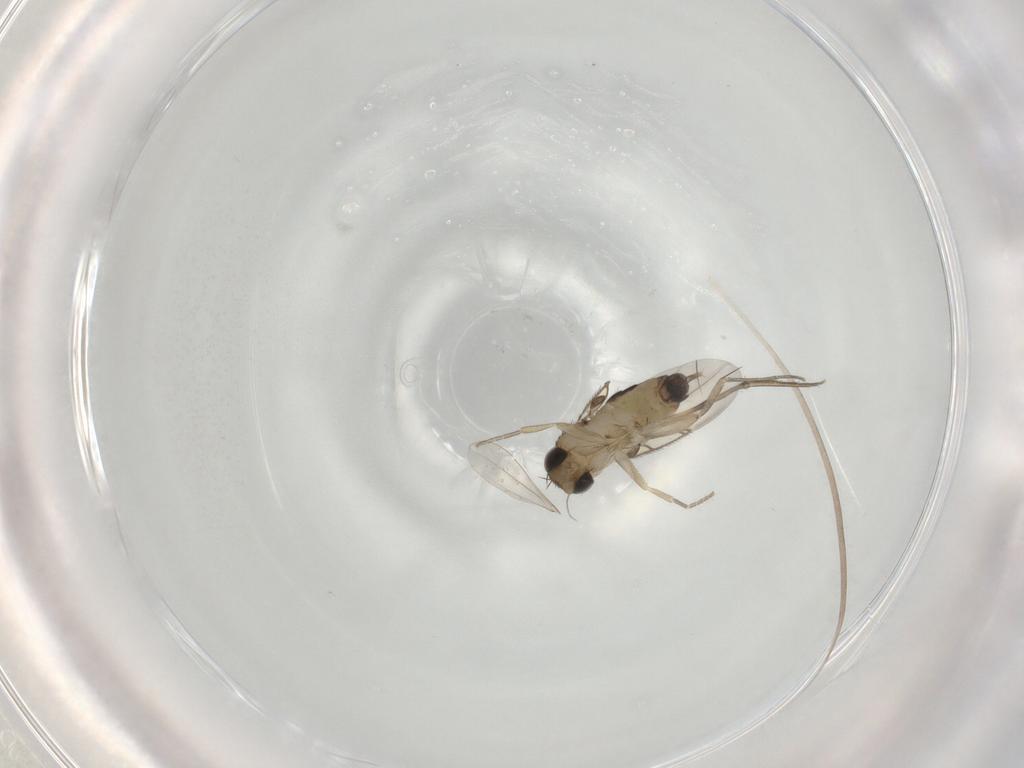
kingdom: Animalia
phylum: Arthropoda
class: Insecta
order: Diptera
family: Phoridae
